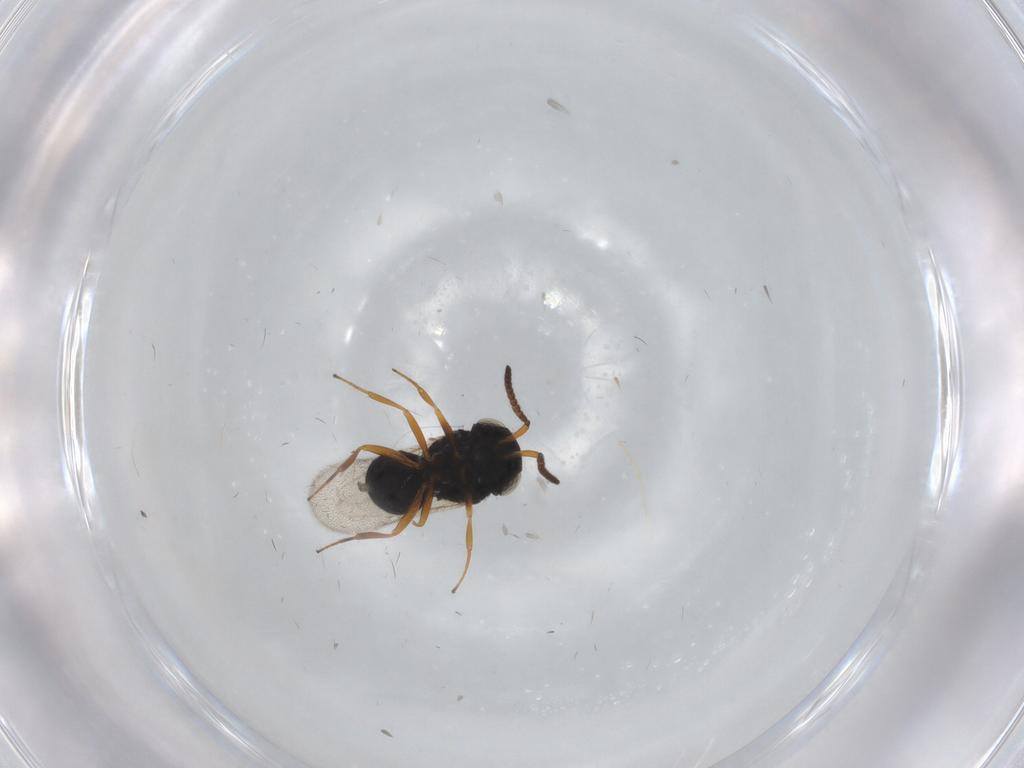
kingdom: Animalia
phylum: Arthropoda
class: Insecta
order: Hymenoptera
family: Scelionidae
